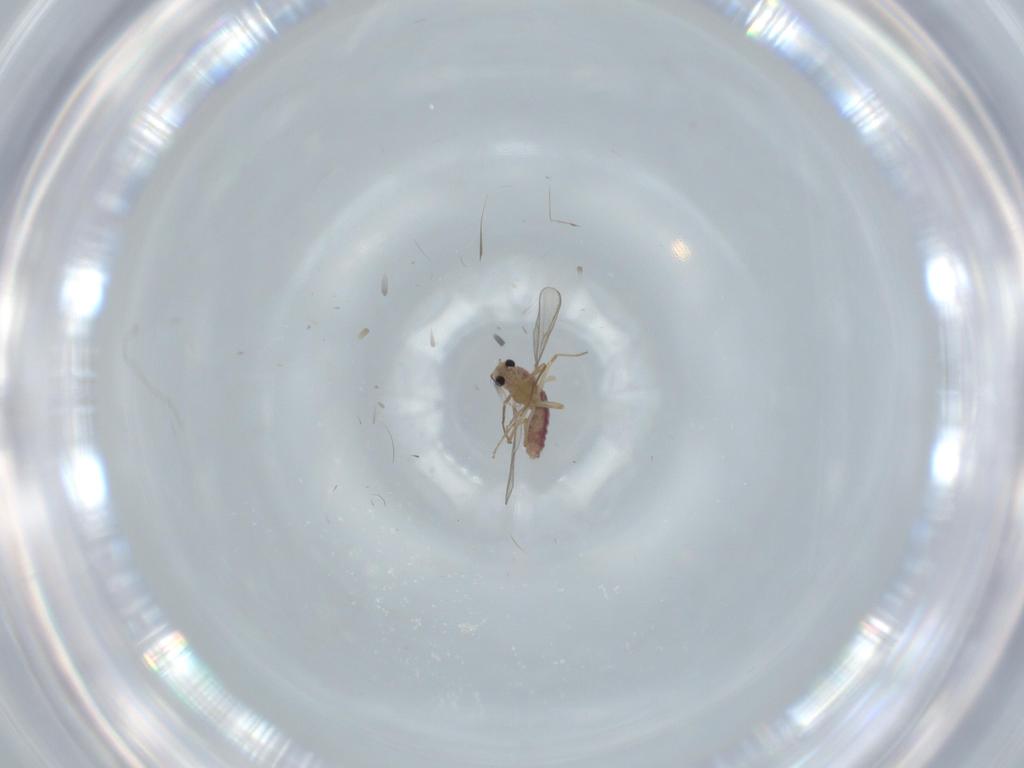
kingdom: Animalia
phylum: Arthropoda
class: Insecta
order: Diptera
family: Chironomidae
